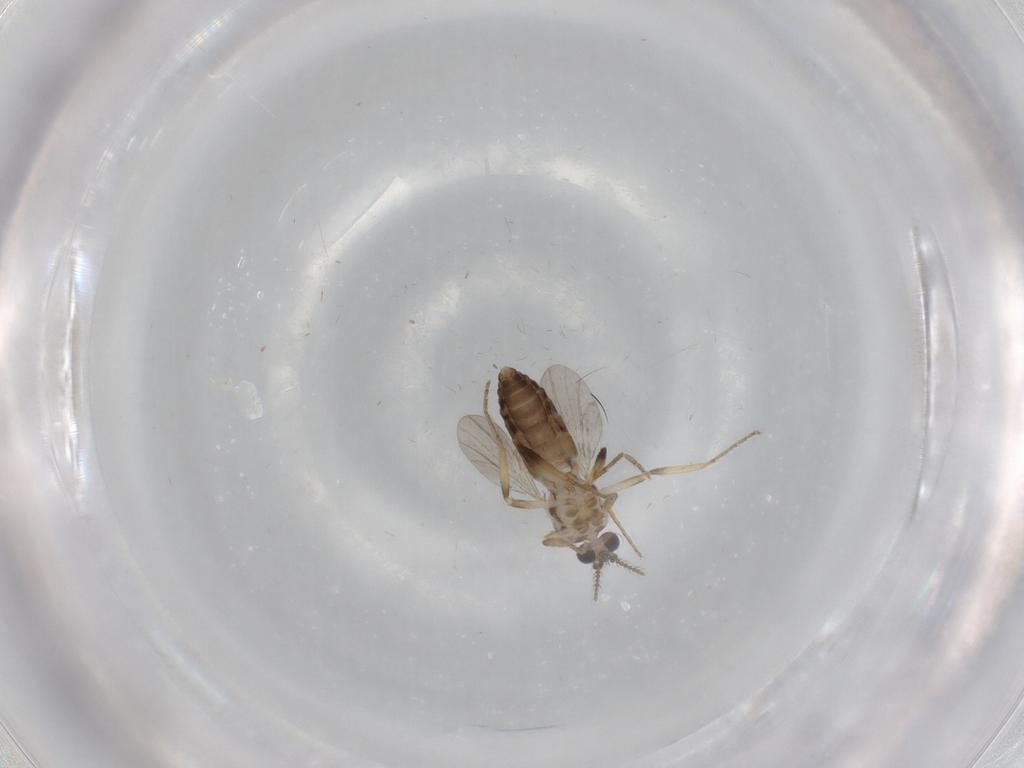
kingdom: Animalia
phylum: Arthropoda
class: Insecta
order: Diptera
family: Ceratopogonidae
